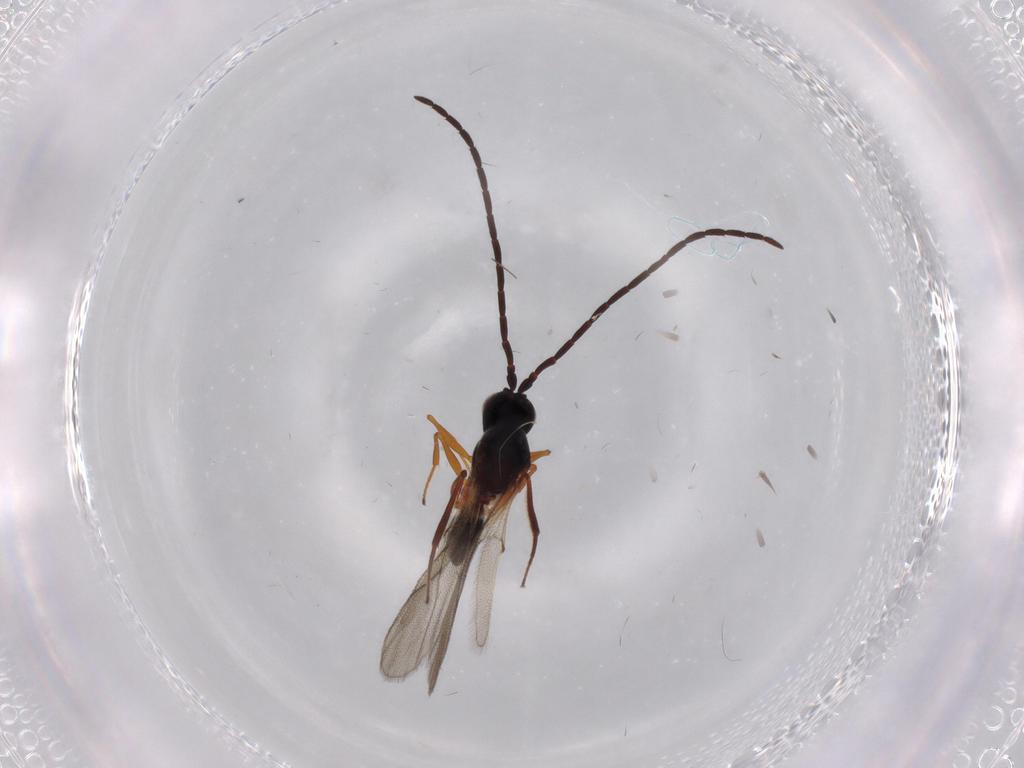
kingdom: Animalia
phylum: Arthropoda
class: Insecta
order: Hymenoptera
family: Figitidae
